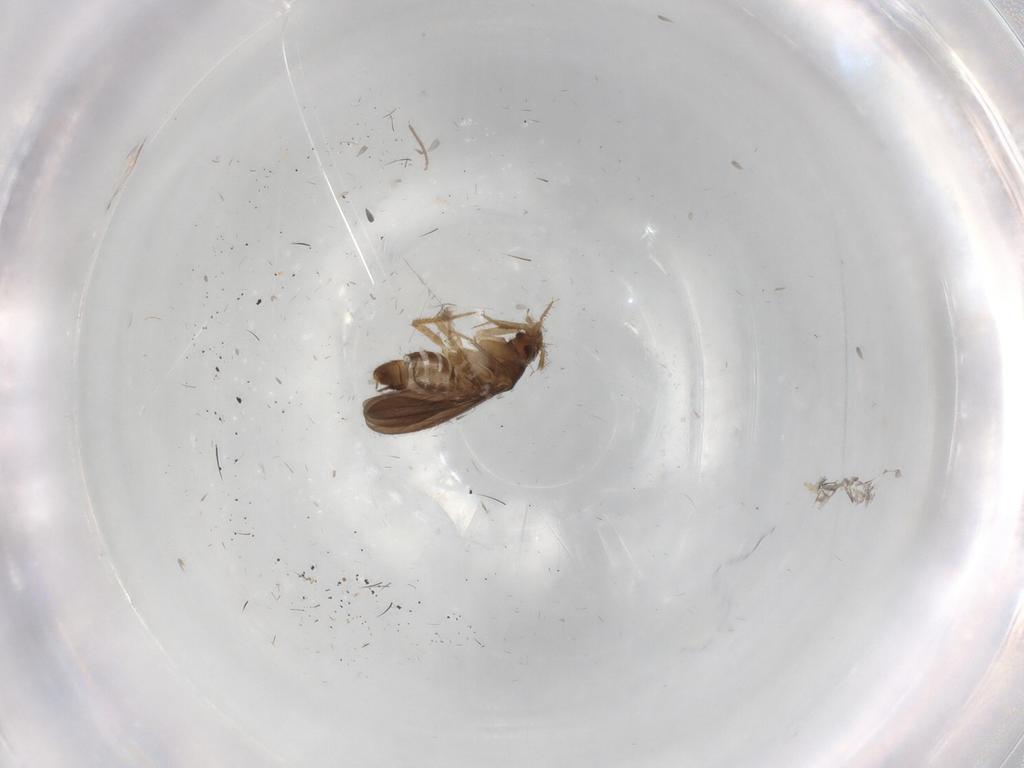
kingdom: Animalia
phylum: Arthropoda
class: Insecta
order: Hemiptera
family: Ceratocombidae
